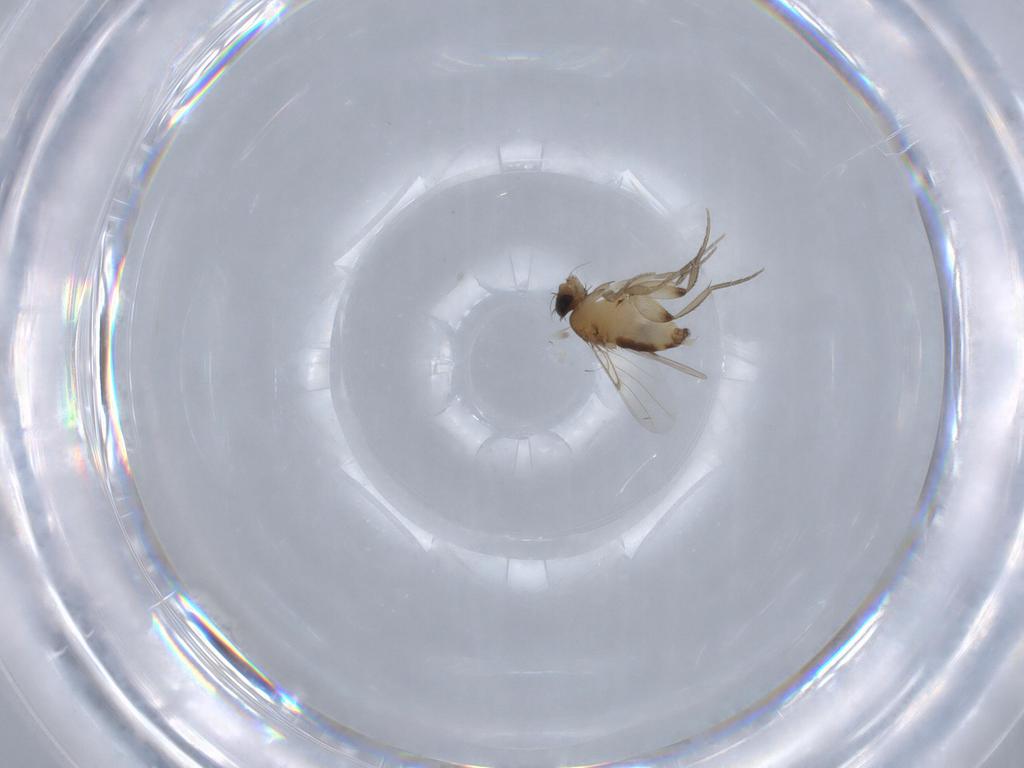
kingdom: Animalia
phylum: Arthropoda
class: Insecta
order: Diptera
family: Phoridae
